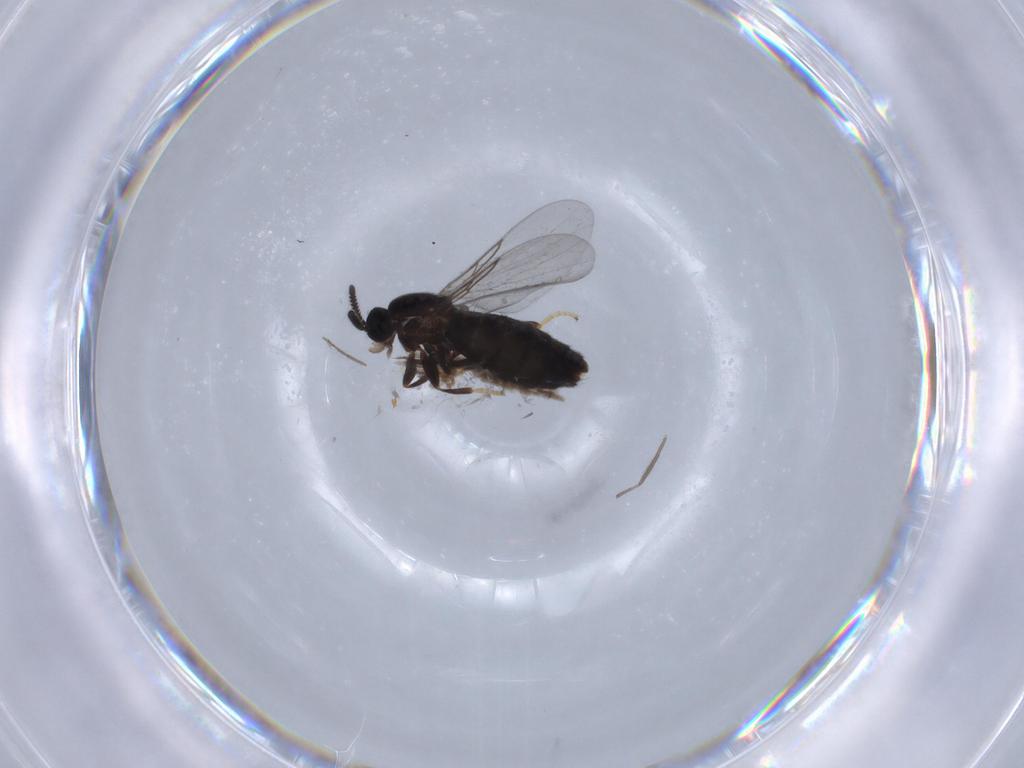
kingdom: Animalia
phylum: Arthropoda
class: Insecta
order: Diptera
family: Scatopsidae
